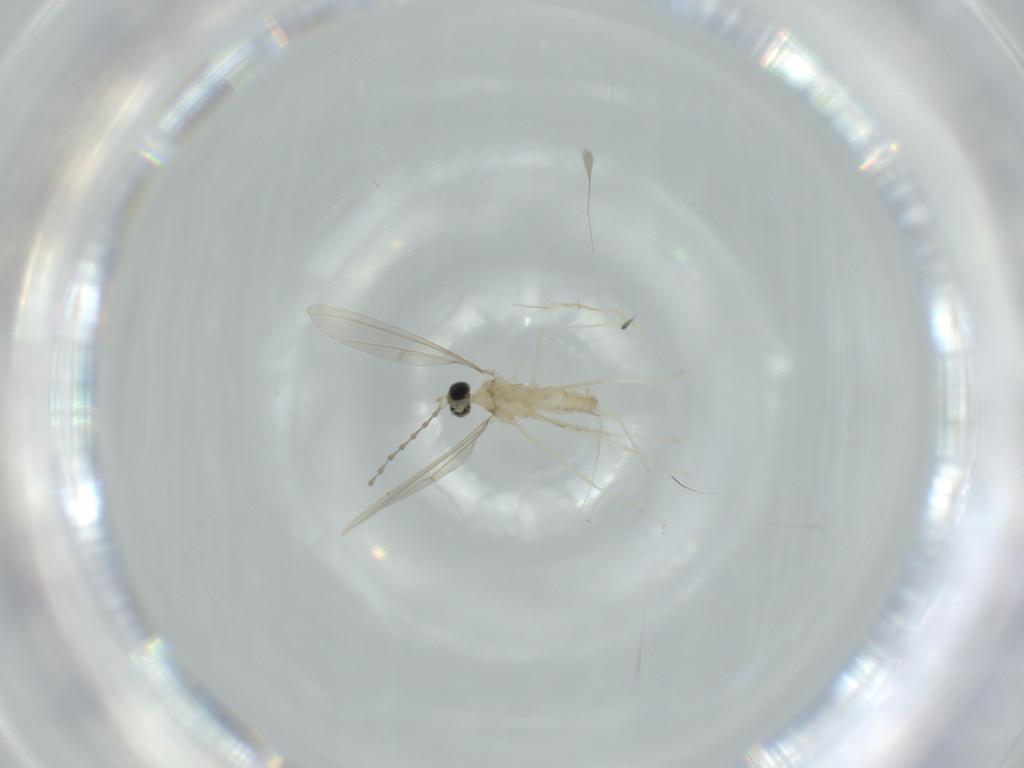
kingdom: Animalia
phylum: Arthropoda
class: Insecta
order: Diptera
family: Cecidomyiidae
